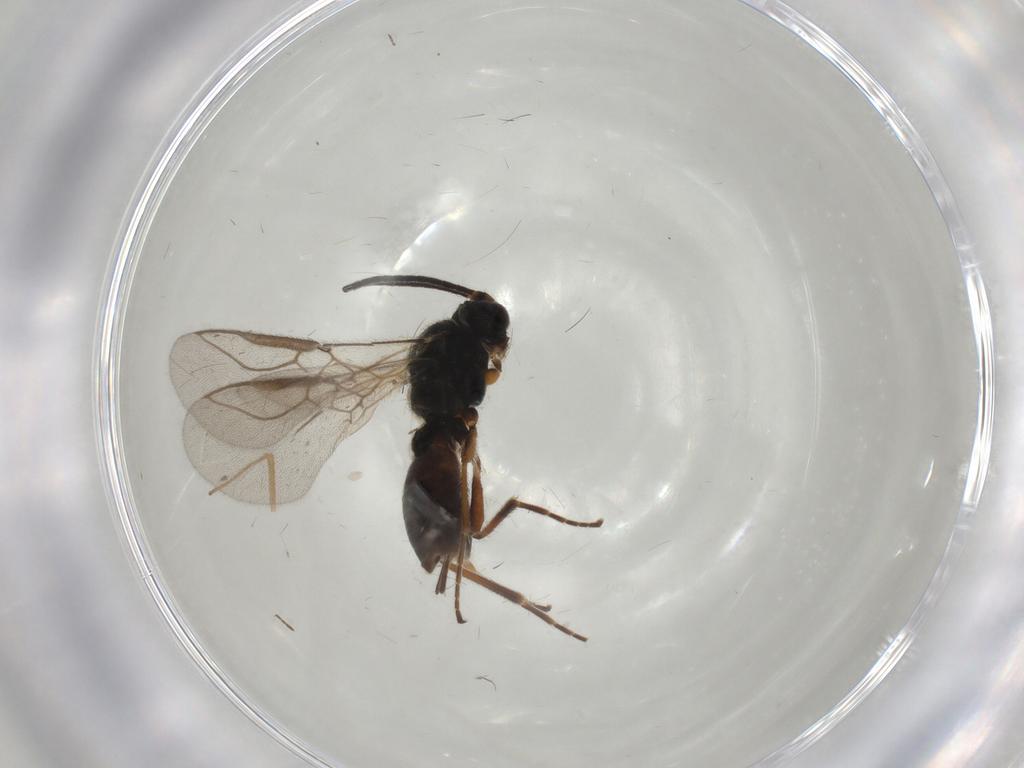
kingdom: Animalia
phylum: Arthropoda
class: Insecta
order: Hymenoptera
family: Braconidae
